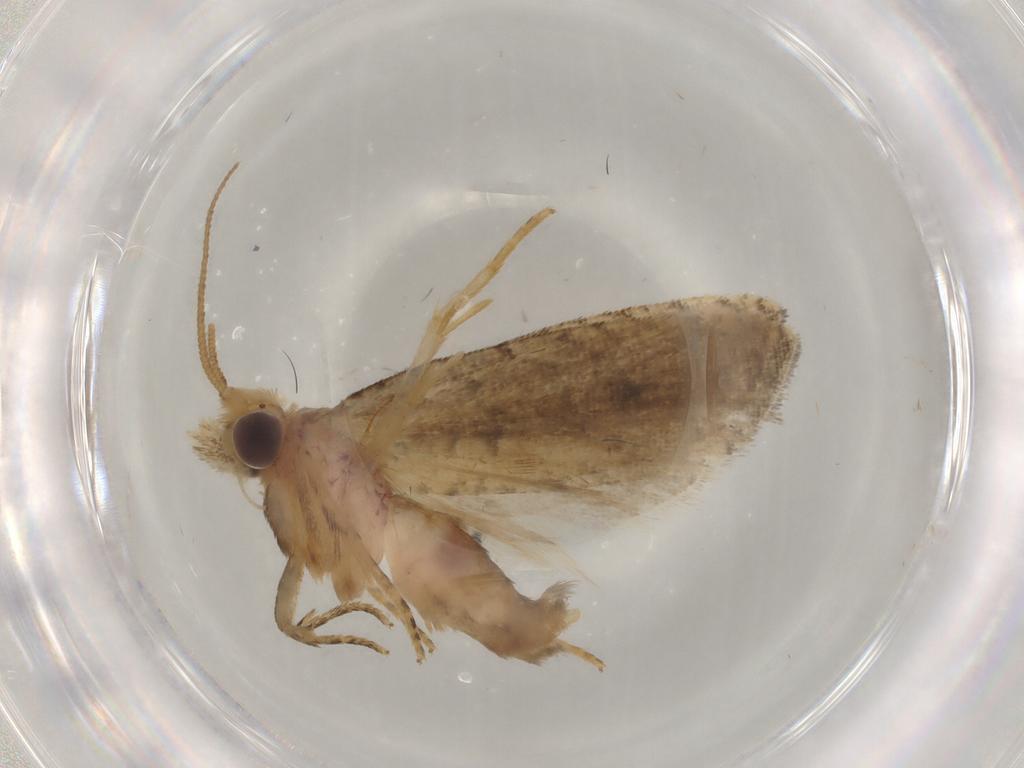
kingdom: Animalia
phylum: Arthropoda
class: Insecta
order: Lepidoptera
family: Tortricidae
